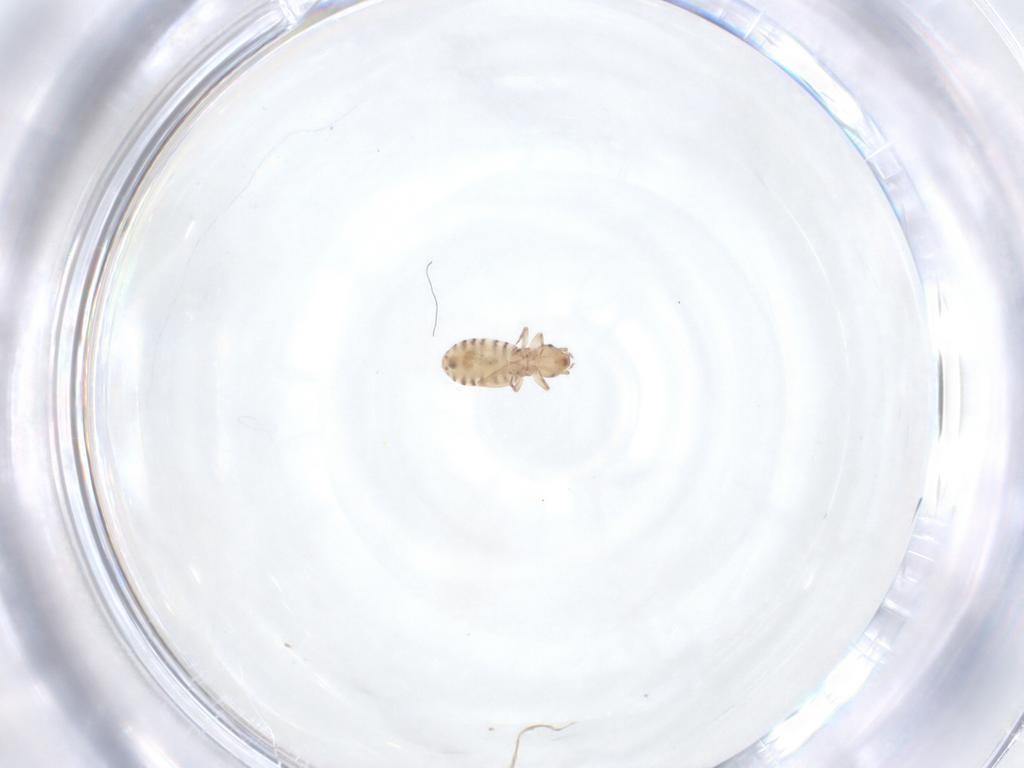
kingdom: Animalia
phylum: Arthropoda
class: Insecta
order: Psocodea
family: Liposcelididae
